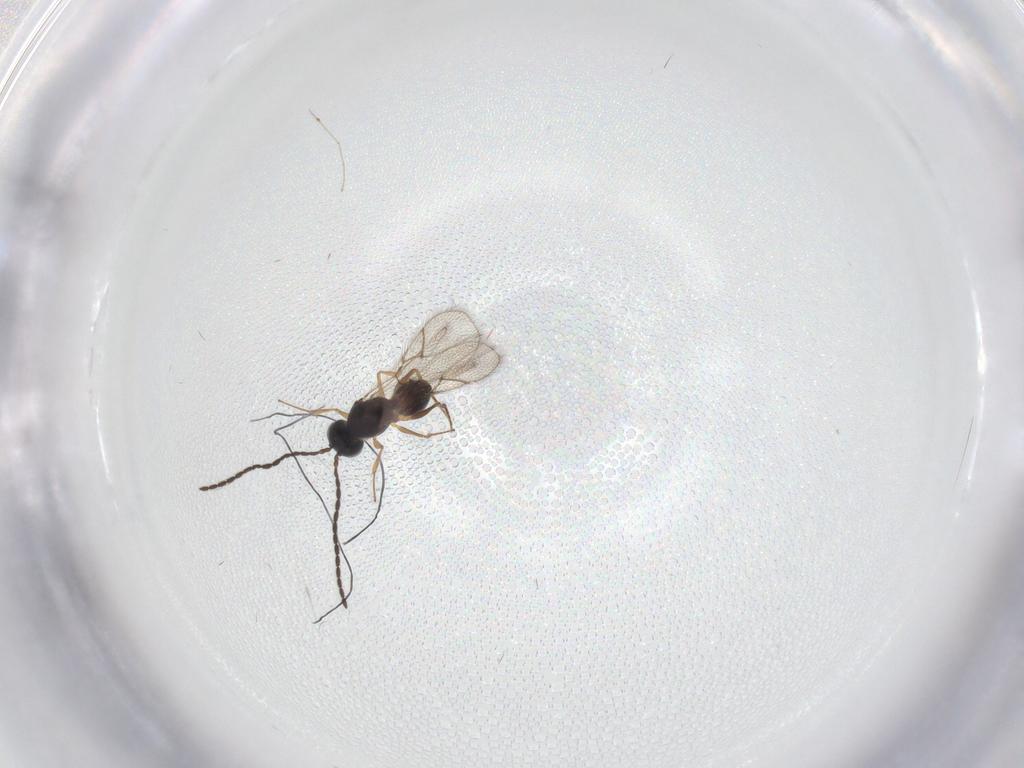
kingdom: Animalia
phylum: Arthropoda
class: Insecta
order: Hymenoptera
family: Figitidae
